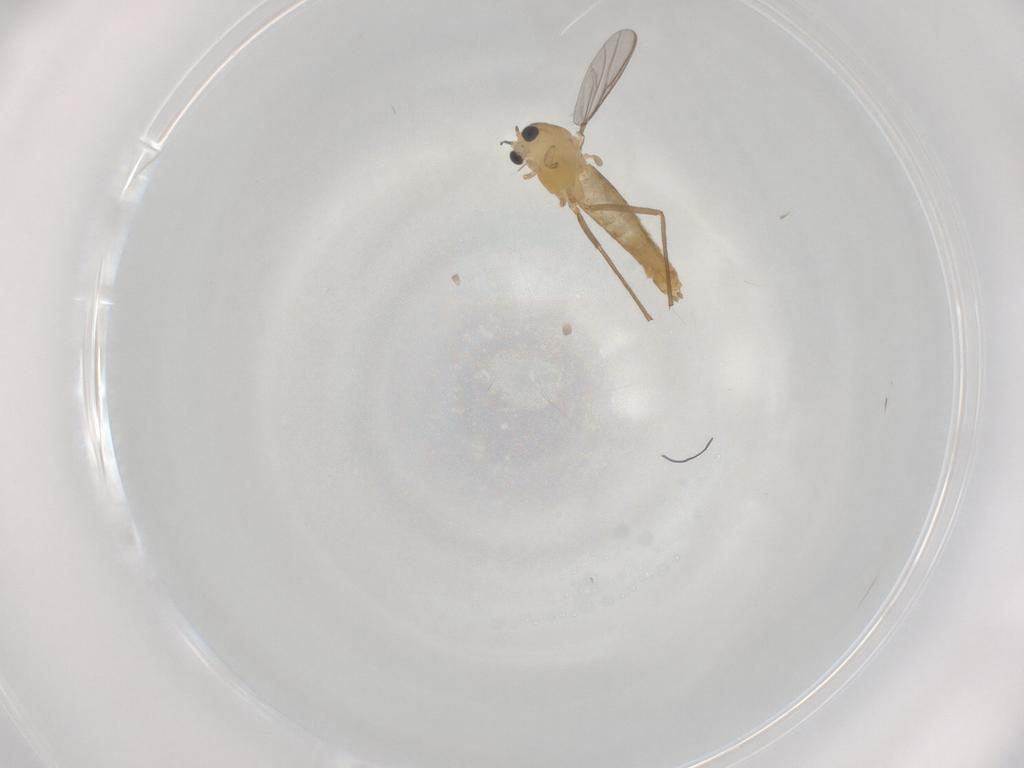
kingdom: Animalia
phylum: Arthropoda
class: Insecta
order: Diptera
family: Chironomidae
